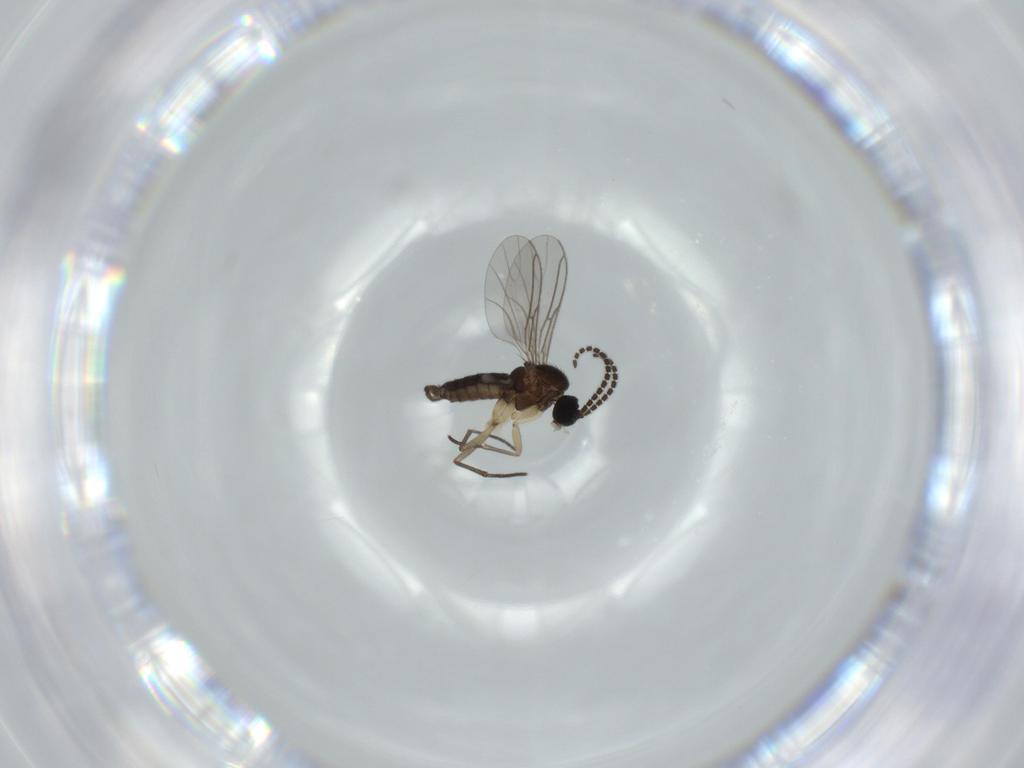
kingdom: Animalia
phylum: Arthropoda
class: Insecta
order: Diptera
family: Sciaridae
